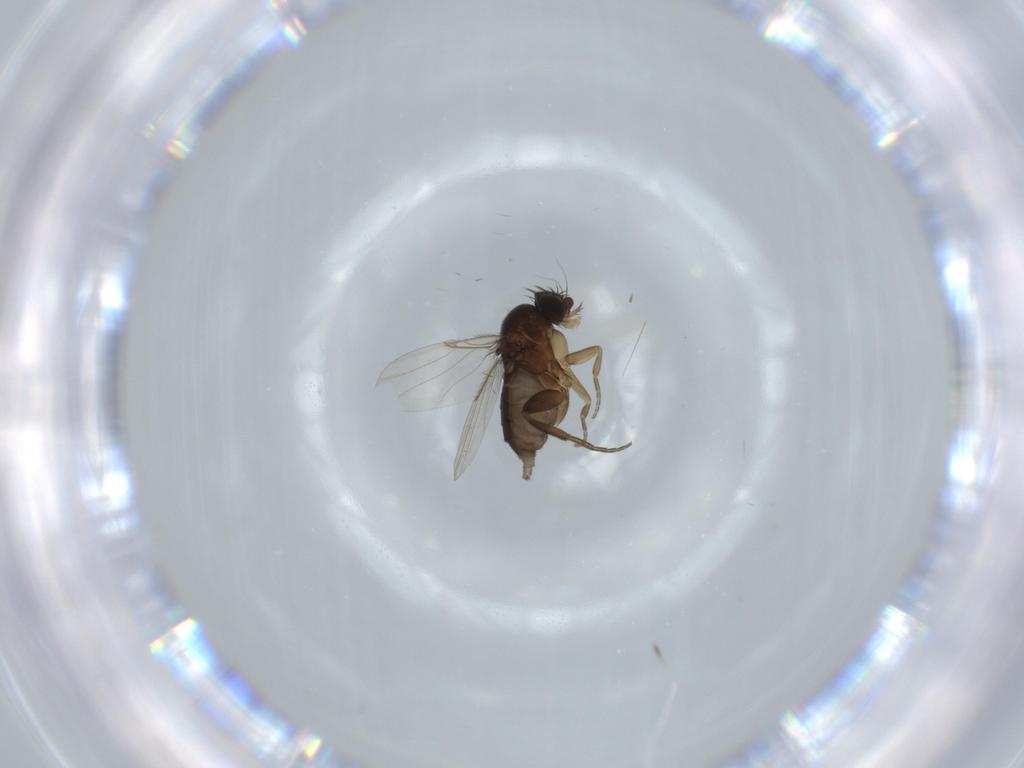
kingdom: Animalia
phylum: Arthropoda
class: Insecta
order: Diptera
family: Phoridae
